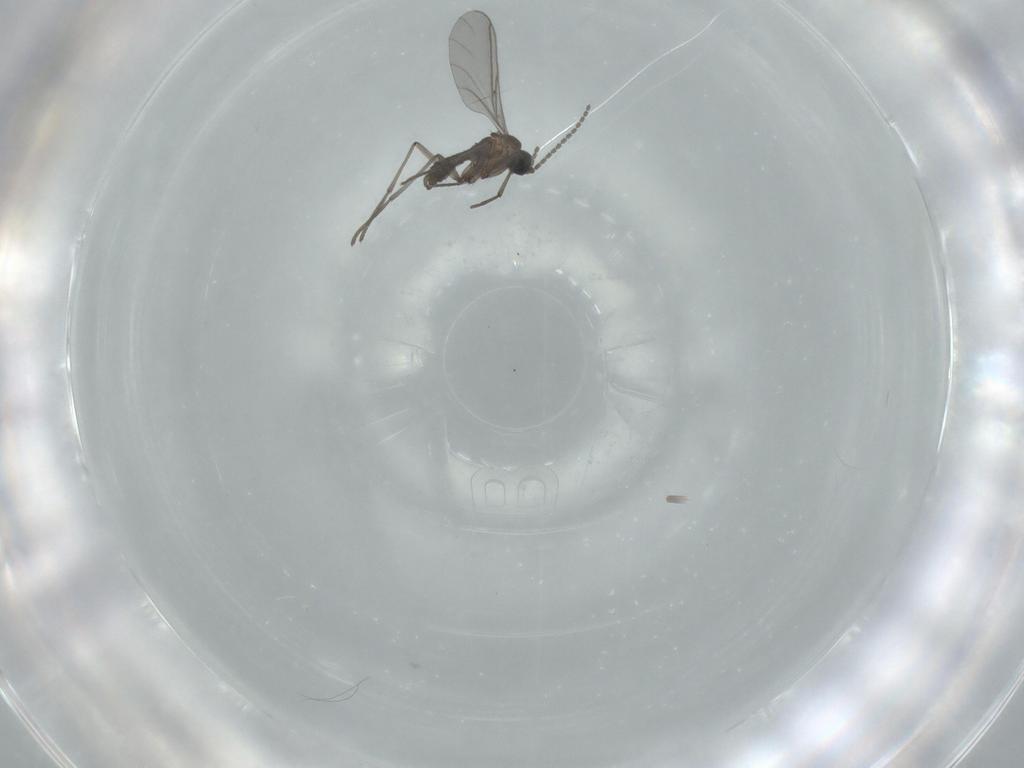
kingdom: Animalia
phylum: Arthropoda
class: Insecta
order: Diptera
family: Sciaridae
